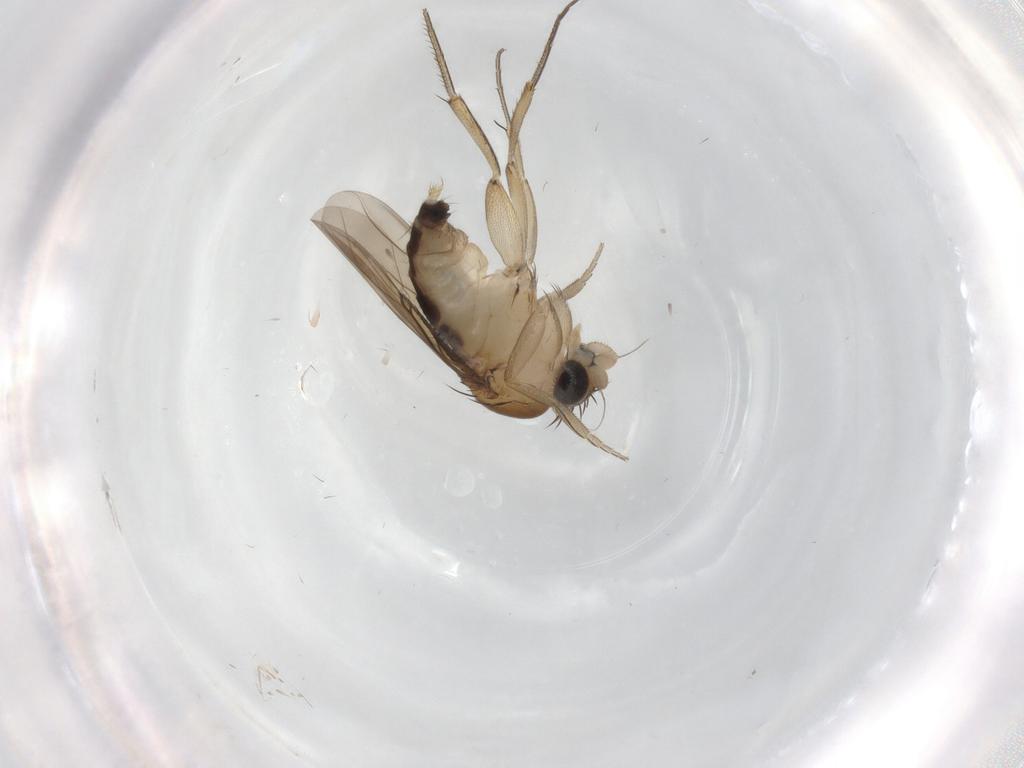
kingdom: Animalia
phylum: Arthropoda
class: Insecta
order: Diptera
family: Phoridae
